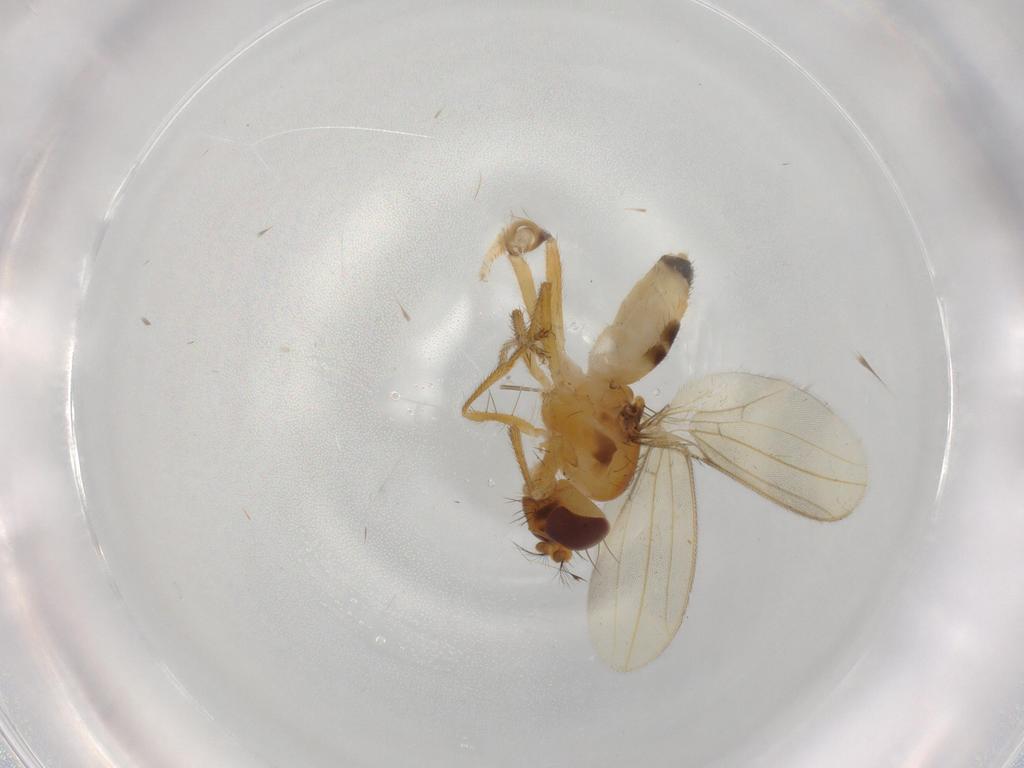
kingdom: Animalia
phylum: Arthropoda
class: Insecta
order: Diptera
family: Periscelididae
